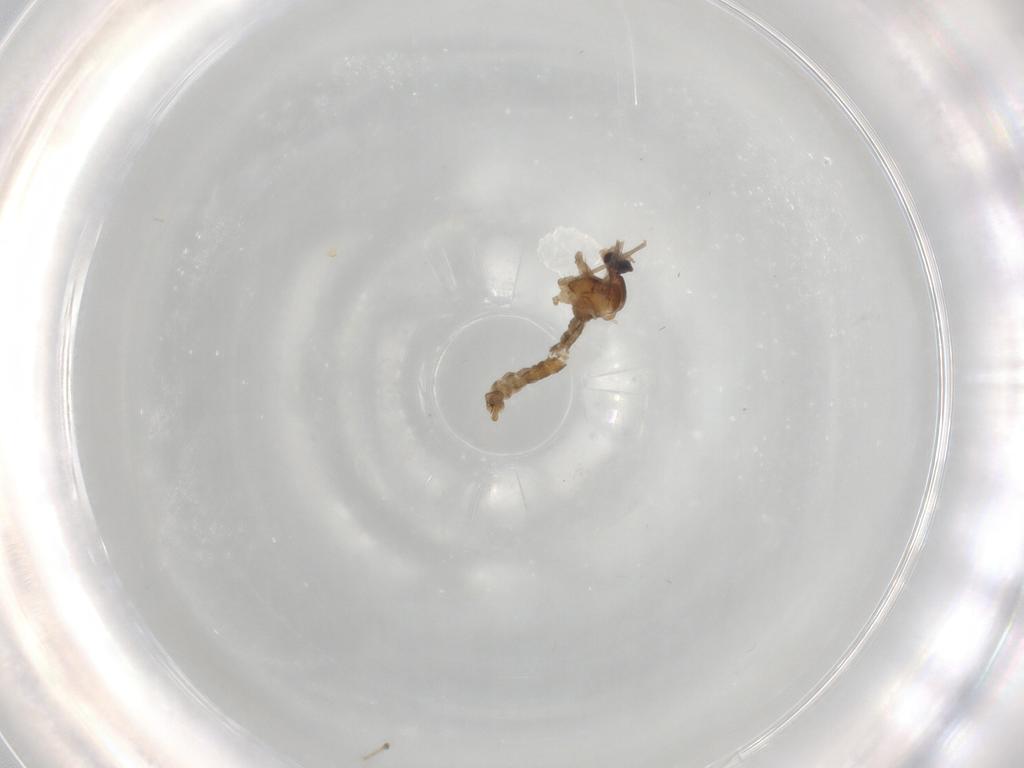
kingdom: Animalia
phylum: Arthropoda
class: Insecta
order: Diptera
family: Cecidomyiidae
